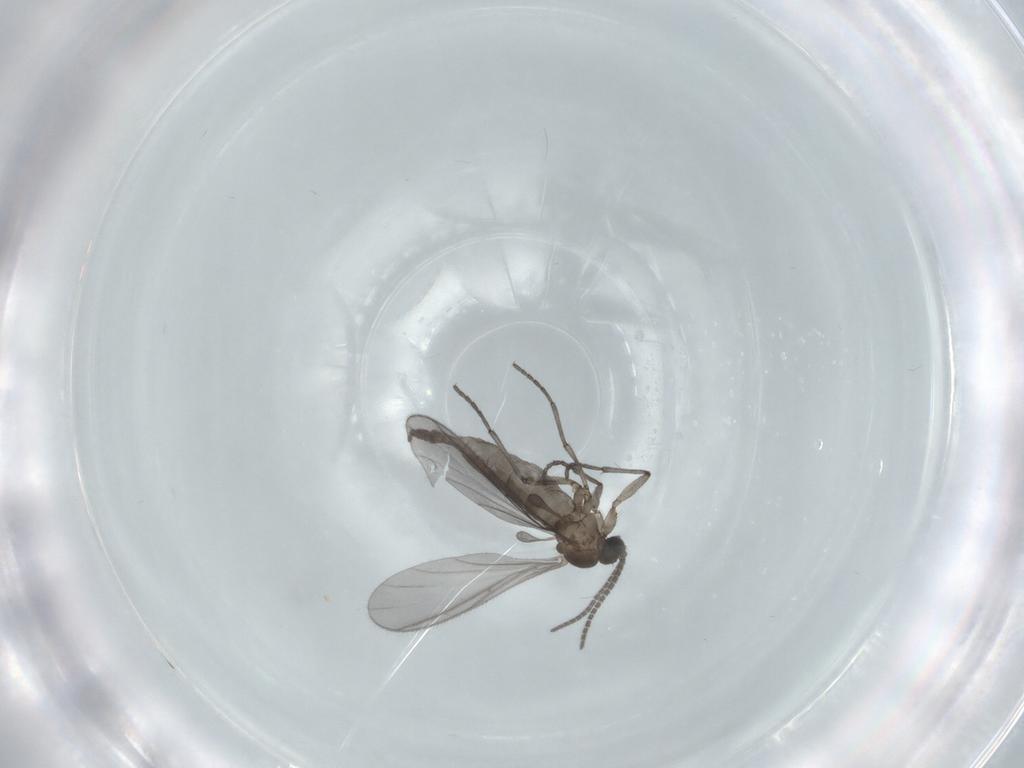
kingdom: Animalia
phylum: Arthropoda
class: Insecta
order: Diptera
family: Sciaridae
